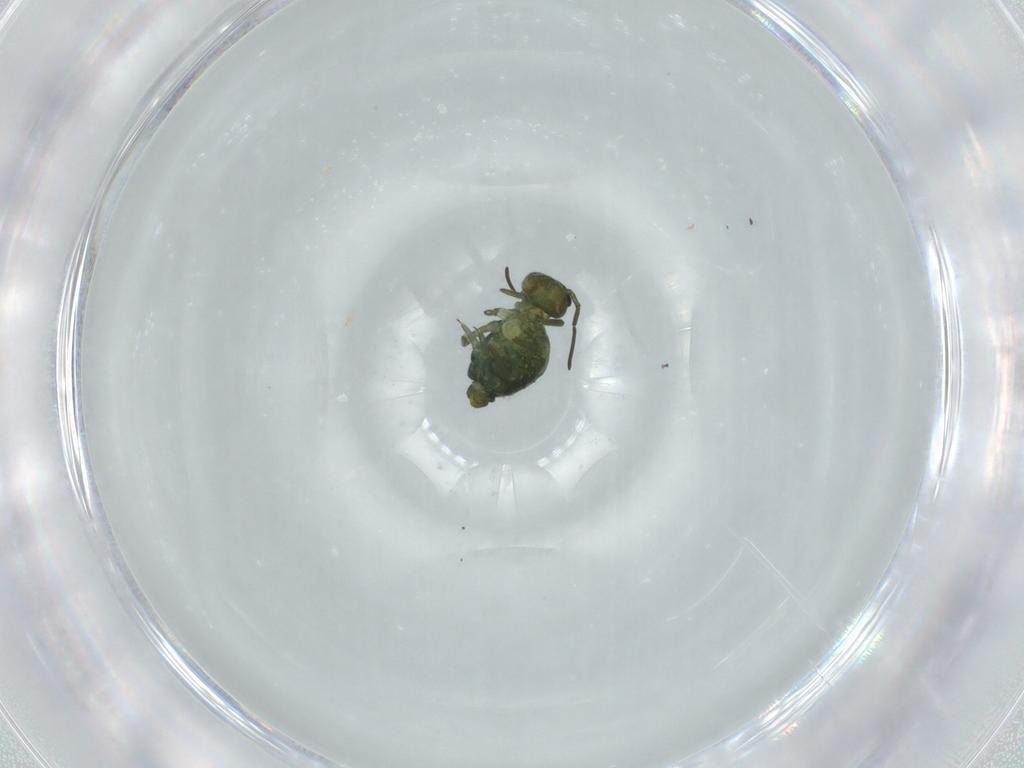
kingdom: Animalia
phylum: Arthropoda
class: Collembola
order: Symphypleona
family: Sminthuridae
